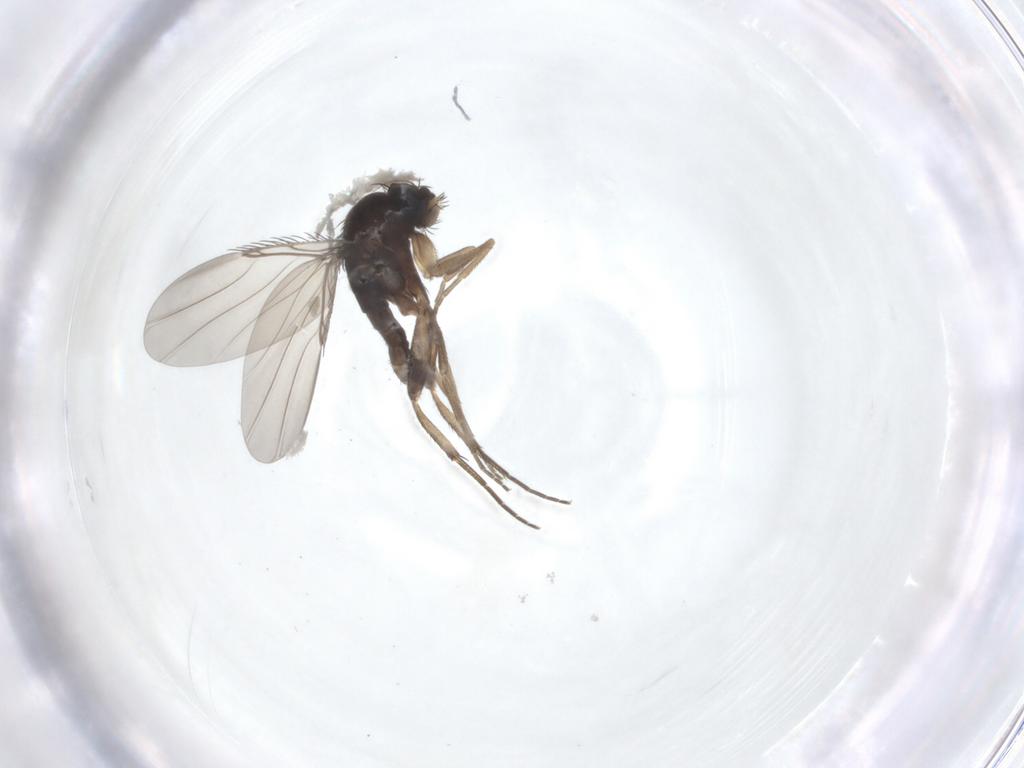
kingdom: Animalia
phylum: Arthropoda
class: Insecta
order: Diptera
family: Phoridae
